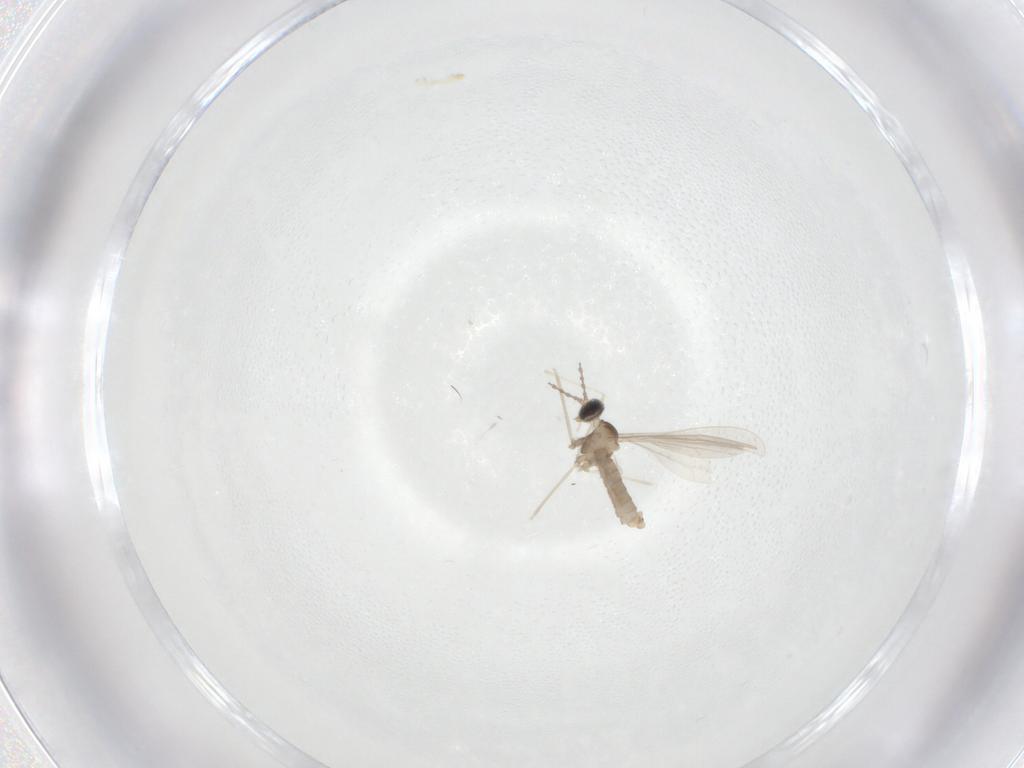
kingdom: Animalia
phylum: Arthropoda
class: Insecta
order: Diptera
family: Cecidomyiidae
